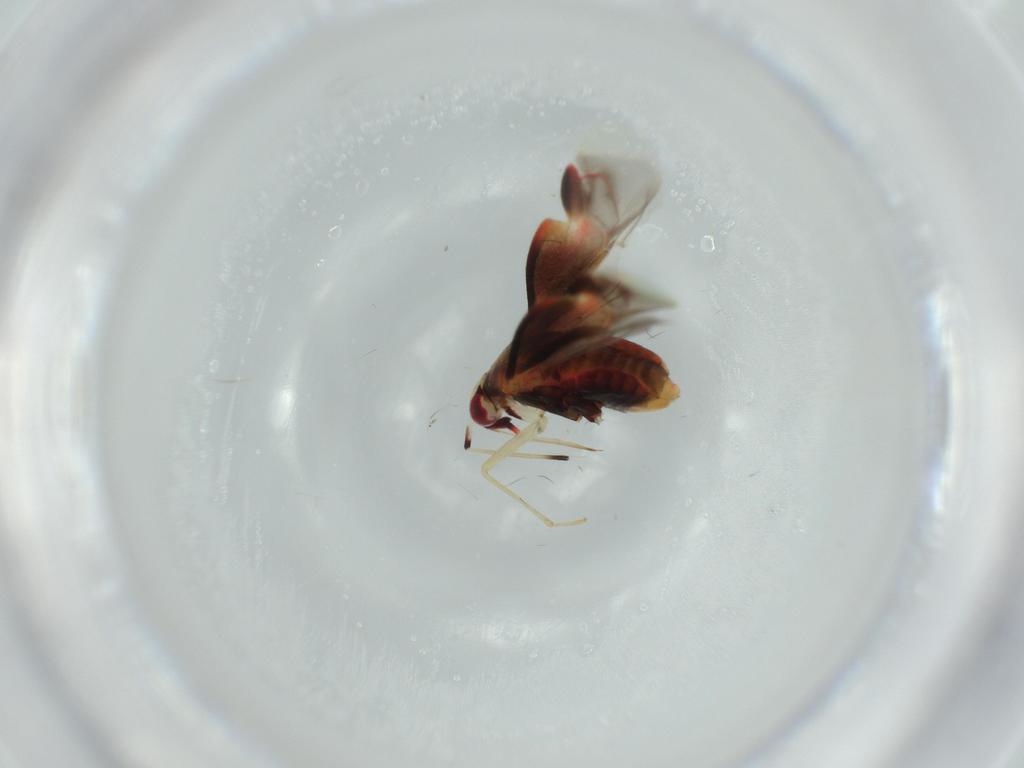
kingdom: Animalia
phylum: Arthropoda
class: Insecta
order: Hemiptera
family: Miridae
